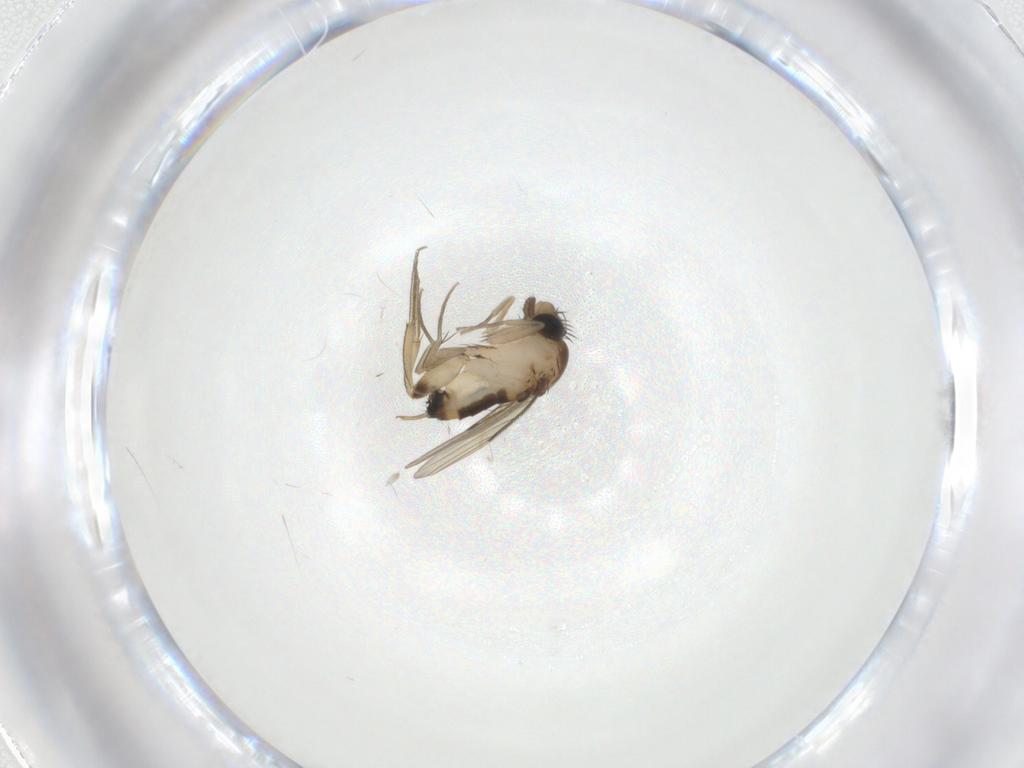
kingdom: Animalia
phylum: Arthropoda
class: Insecta
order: Diptera
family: Phoridae
